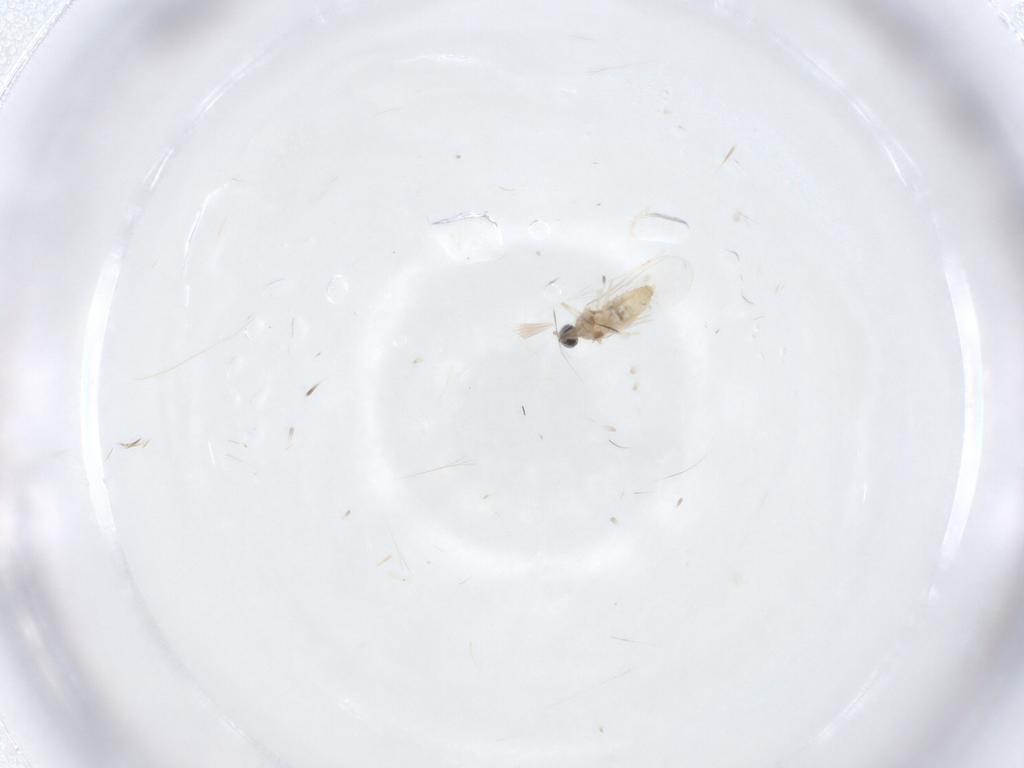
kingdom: Animalia
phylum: Arthropoda
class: Insecta
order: Diptera
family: Cecidomyiidae
